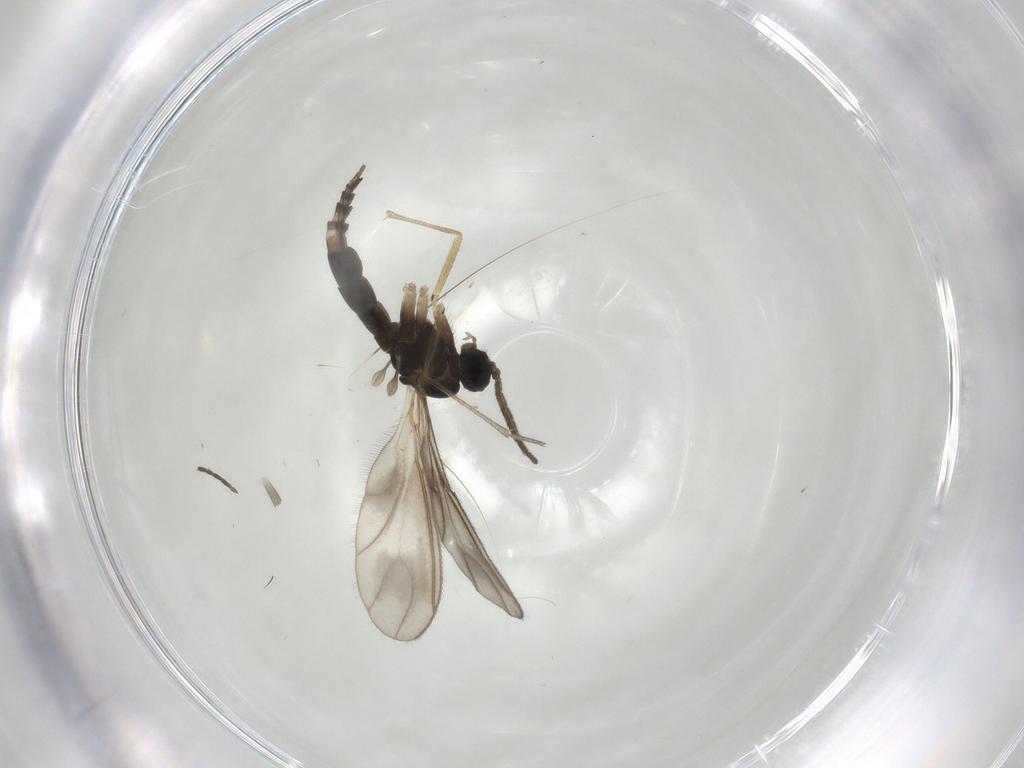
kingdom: Animalia
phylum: Arthropoda
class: Insecta
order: Diptera
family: Sciaridae
